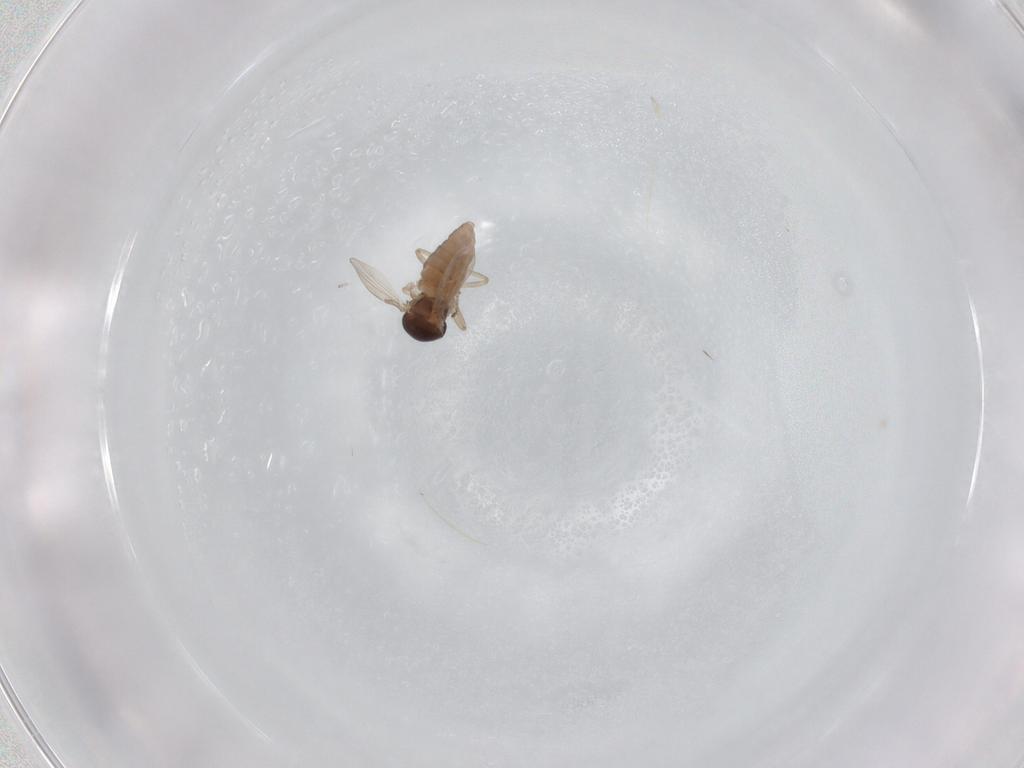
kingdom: Animalia
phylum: Arthropoda
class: Insecta
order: Diptera
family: Ceratopogonidae
